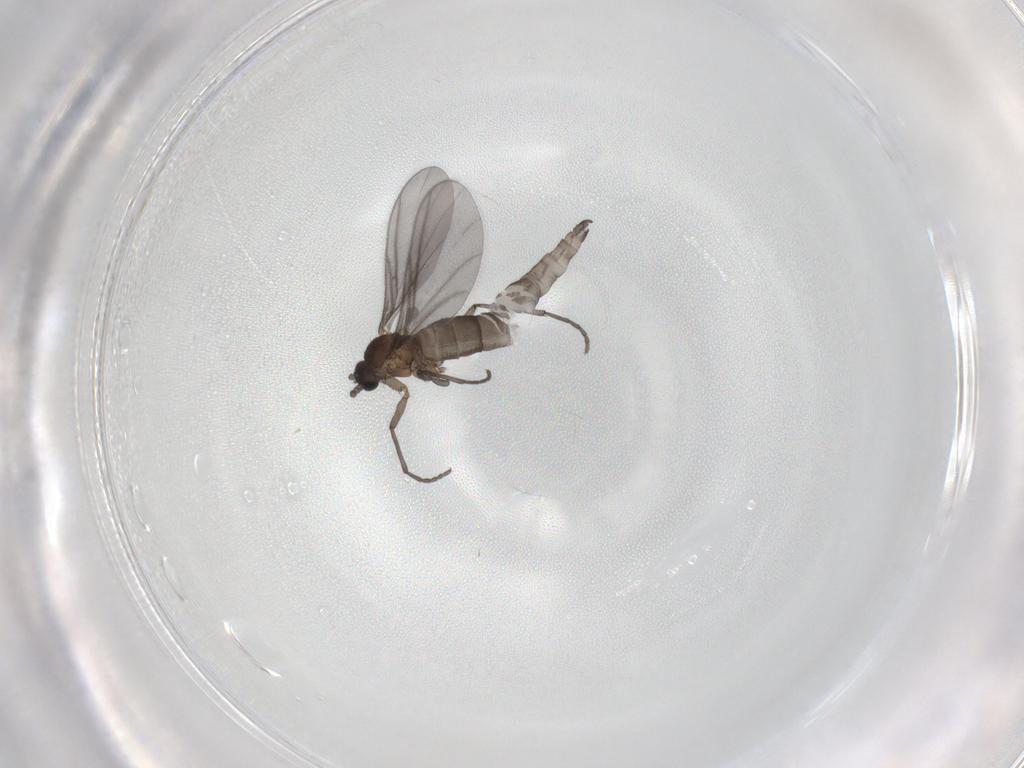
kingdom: Animalia
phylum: Arthropoda
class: Insecta
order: Diptera
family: Sciaridae
